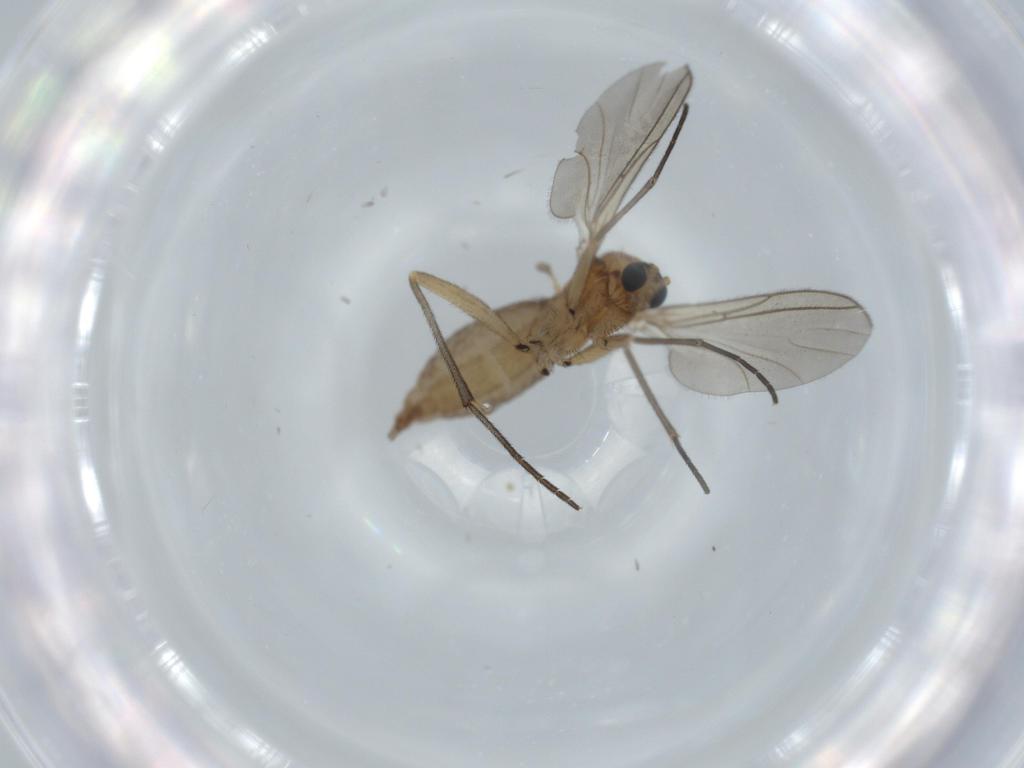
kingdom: Animalia
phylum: Arthropoda
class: Insecta
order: Diptera
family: Sciaridae
